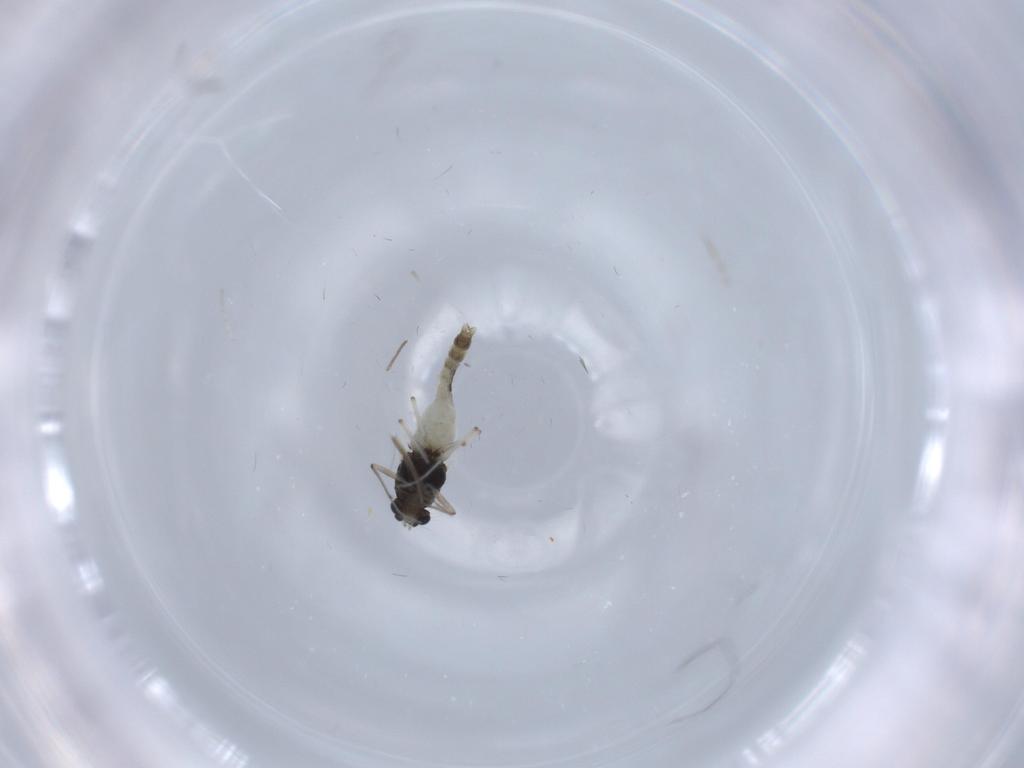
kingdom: Animalia
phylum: Arthropoda
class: Insecta
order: Diptera
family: Chironomidae
